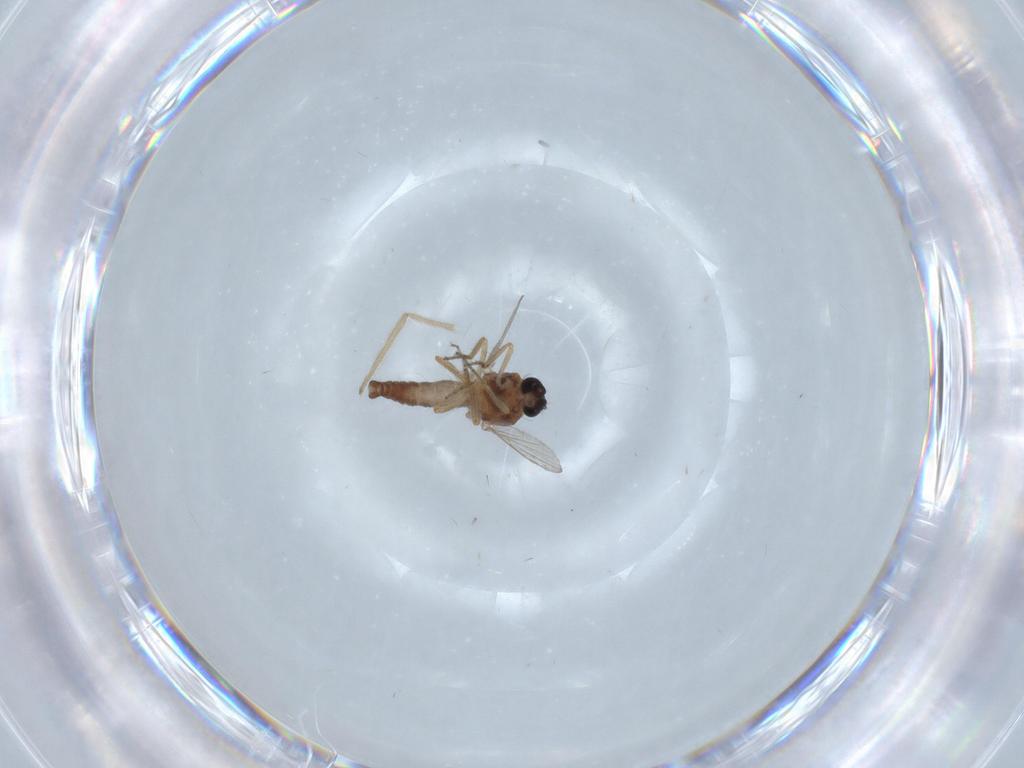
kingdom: Animalia
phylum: Arthropoda
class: Insecta
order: Diptera
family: Ceratopogonidae
